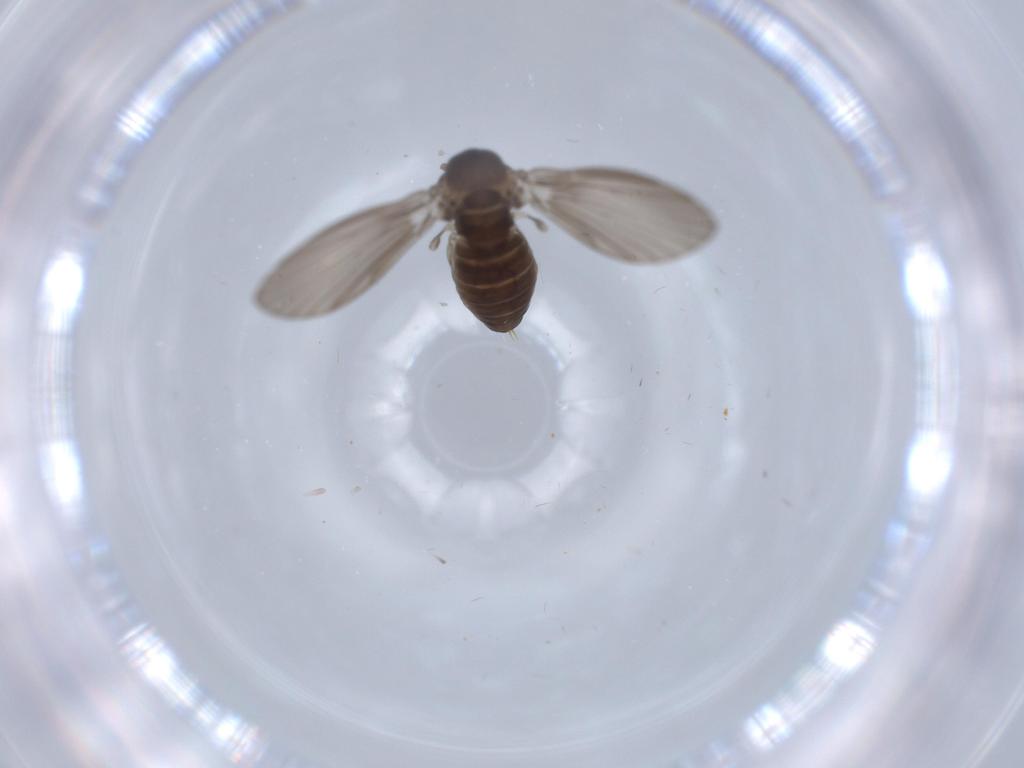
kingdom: Animalia
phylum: Arthropoda
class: Insecta
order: Diptera
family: Psychodidae
